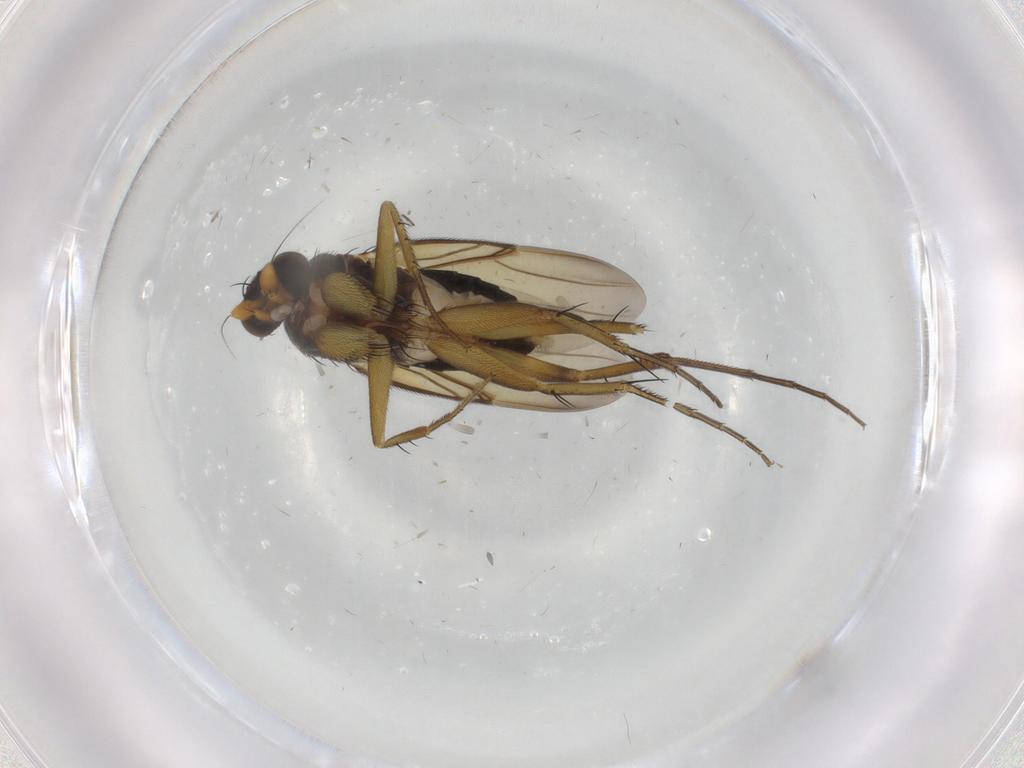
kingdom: Animalia
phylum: Arthropoda
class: Insecta
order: Diptera
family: Phoridae
